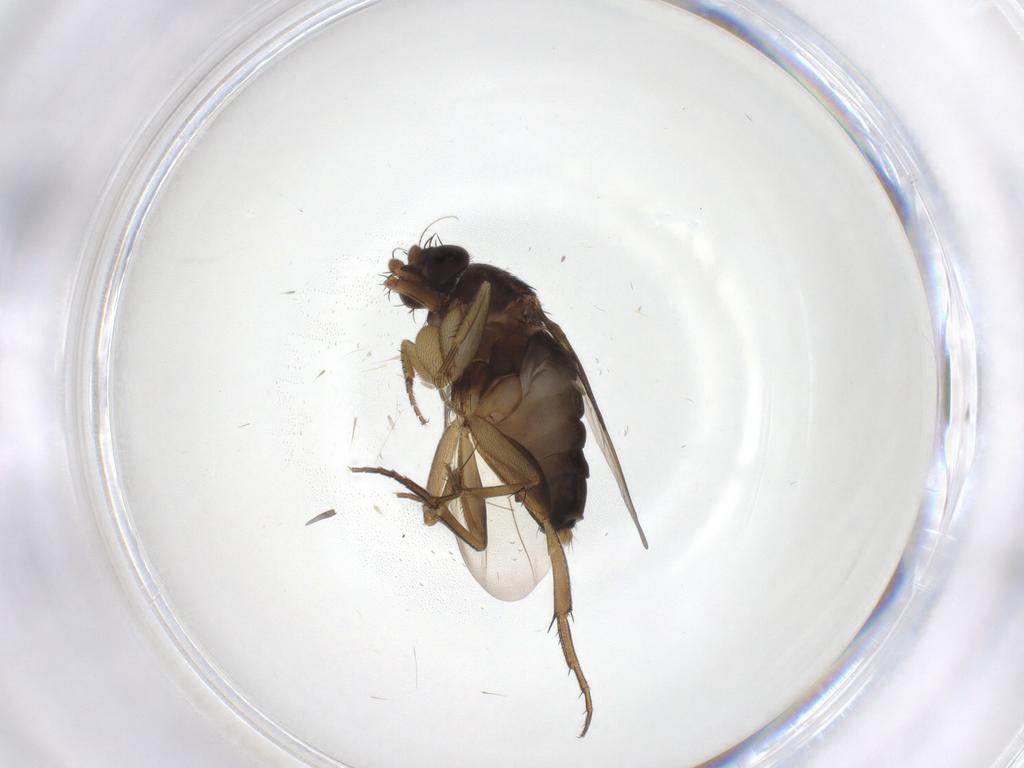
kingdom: Animalia
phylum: Arthropoda
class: Insecta
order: Diptera
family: Phoridae
